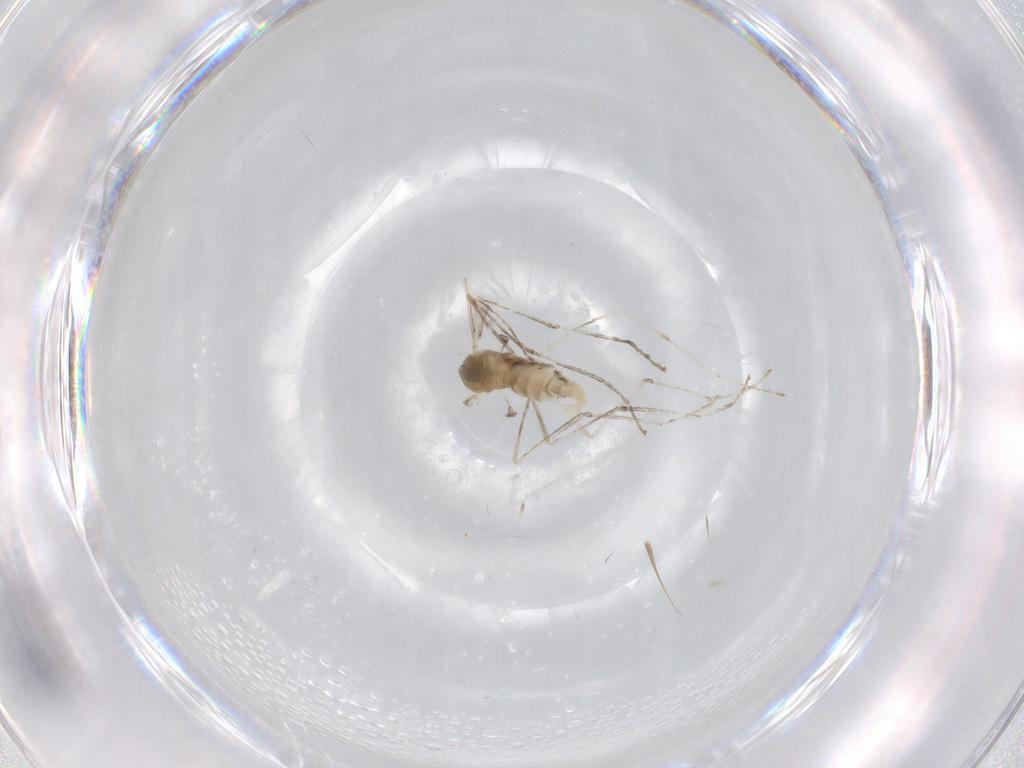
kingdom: Animalia
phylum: Arthropoda
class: Insecta
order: Diptera
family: Cecidomyiidae
